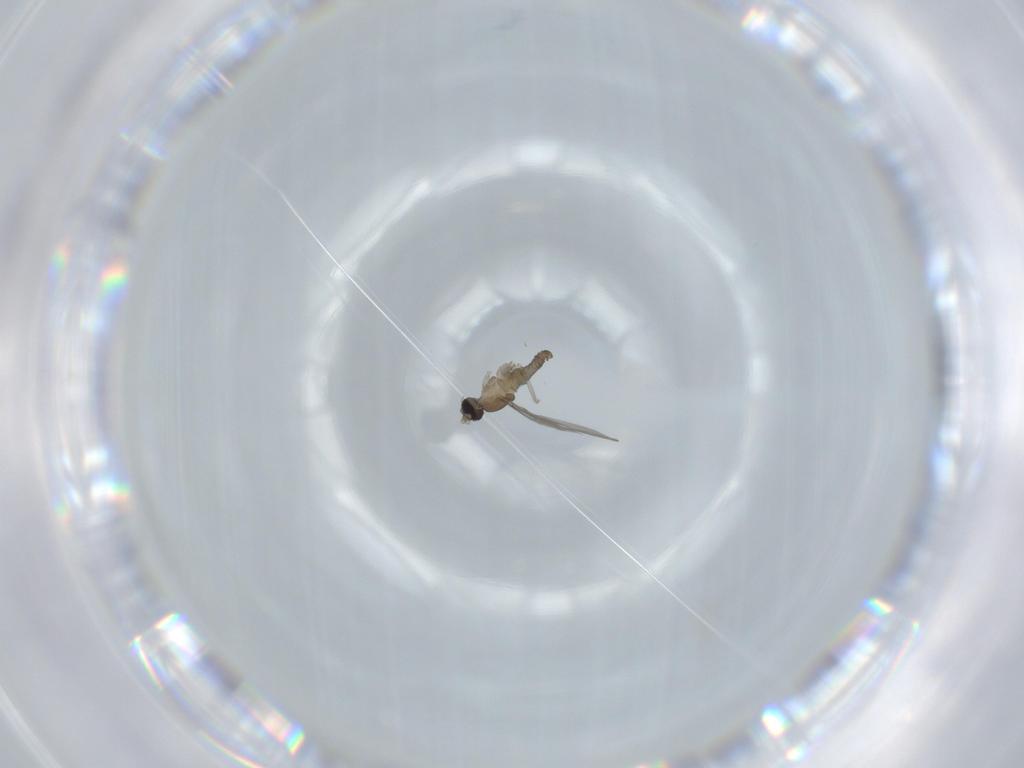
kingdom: Animalia
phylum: Arthropoda
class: Insecta
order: Diptera
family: Cecidomyiidae
